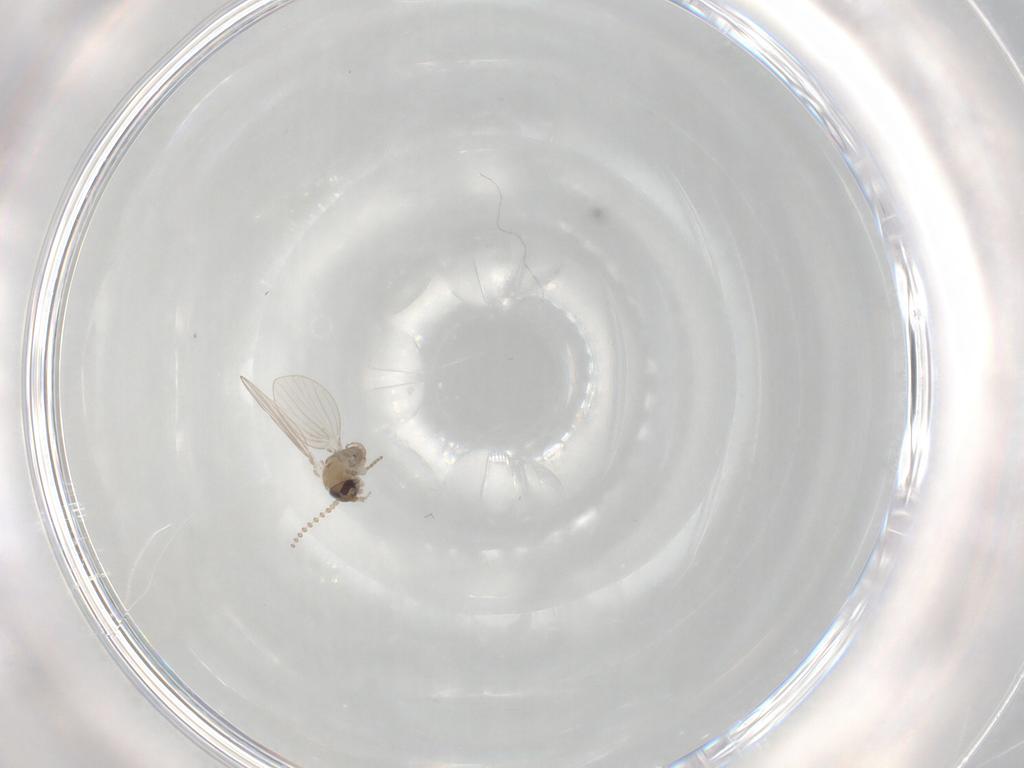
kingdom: Animalia
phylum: Arthropoda
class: Insecta
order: Diptera
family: Psychodidae
